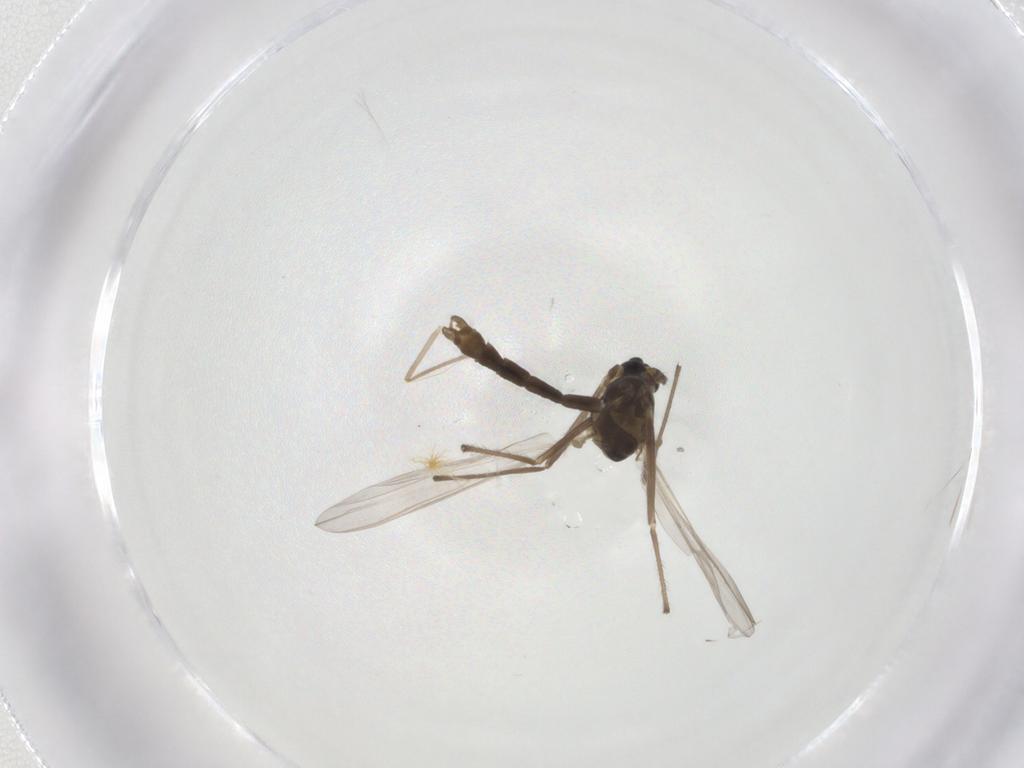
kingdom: Animalia
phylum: Arthropoda
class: Insecta
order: Diptera
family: Chironomidae
